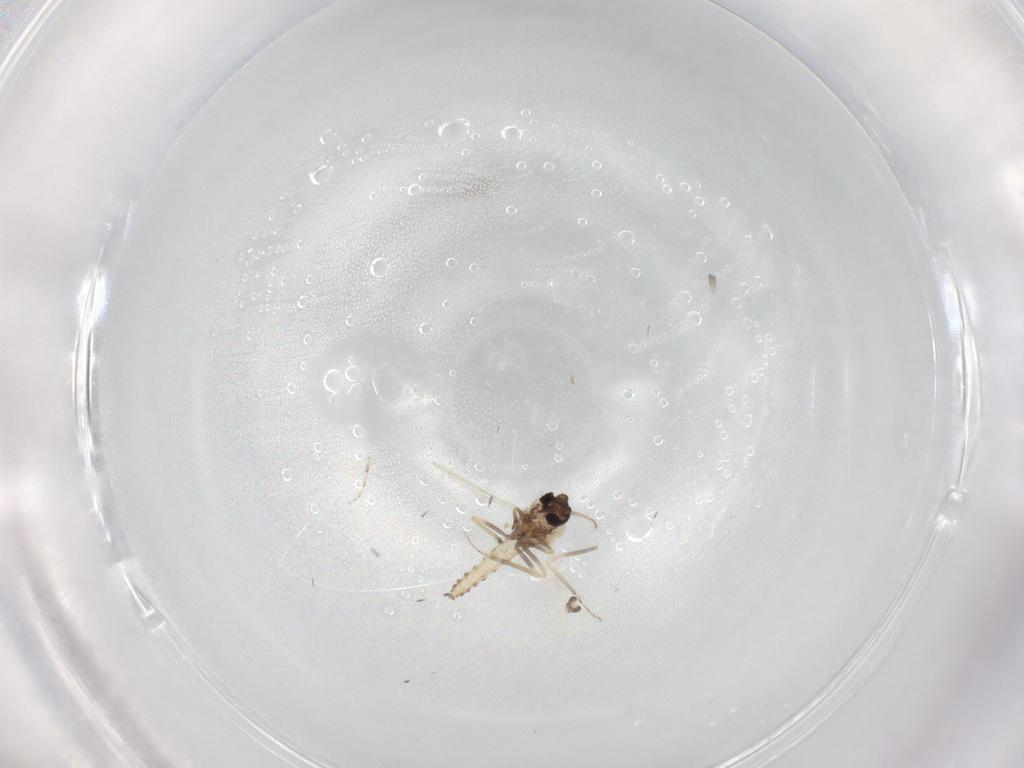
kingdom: Animalia
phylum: Arthropoda
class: Insecta
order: Diptera
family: Ceratopogonidae
